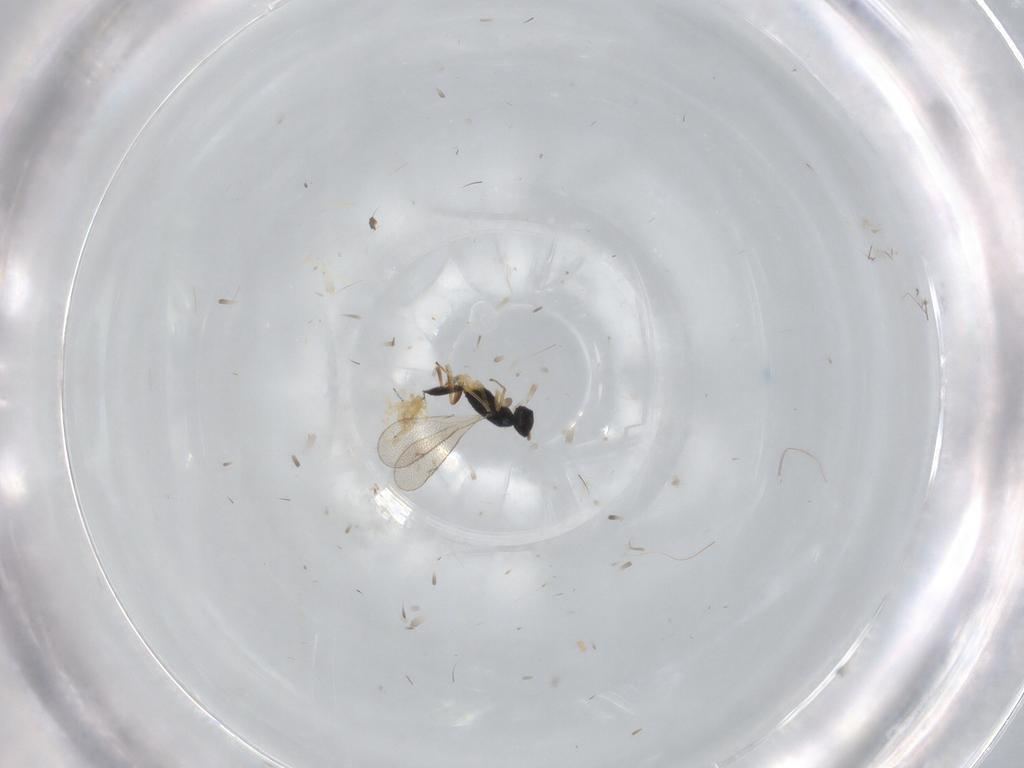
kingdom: Animalia
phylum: Arthropoda
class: Insecta
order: Hymenoptera
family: Eulophidae
